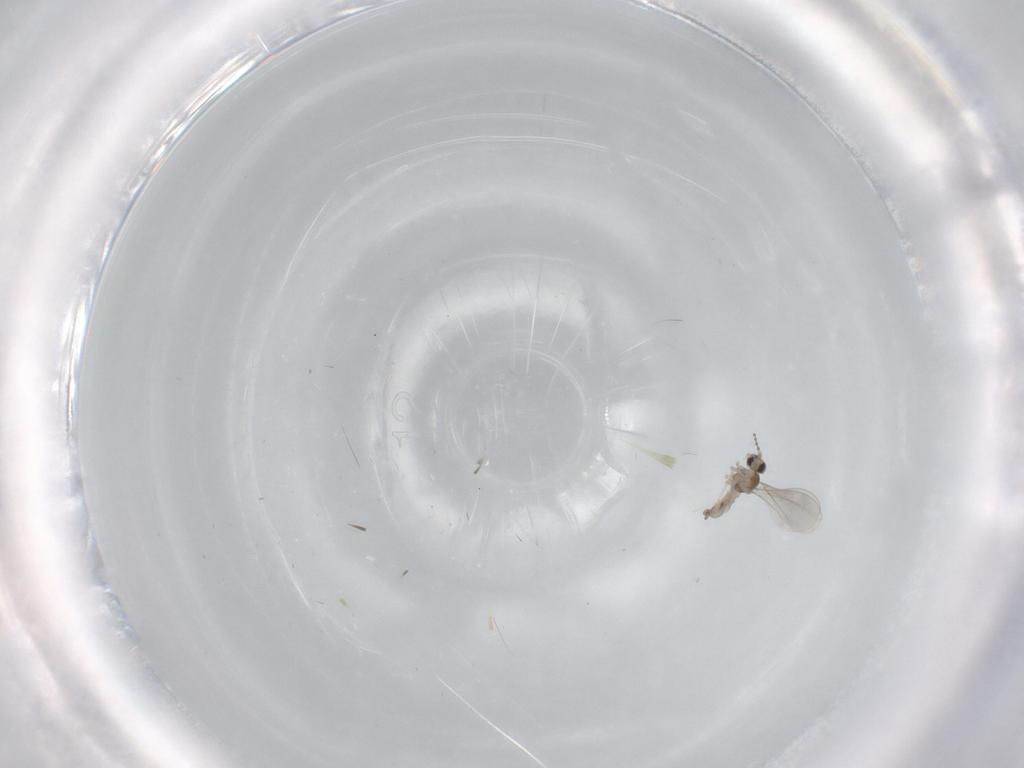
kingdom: Animalia
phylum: Arthropoda
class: Insecta
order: Diptera
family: Cecidomyiidae
